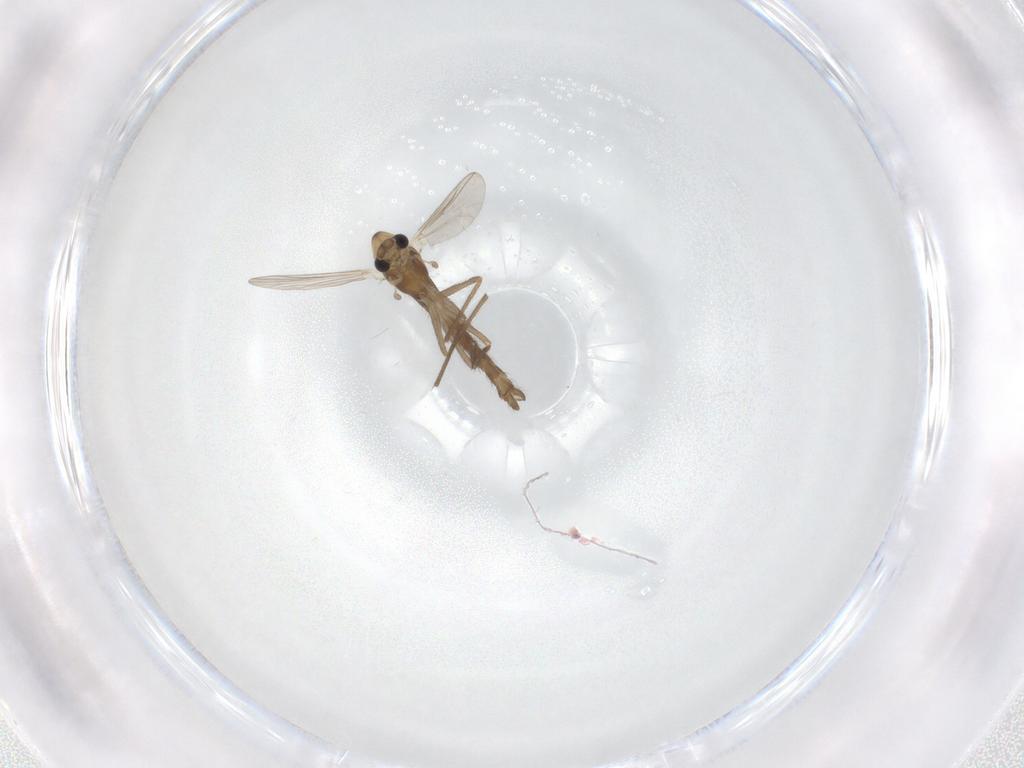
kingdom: Animalia
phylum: Arthropoda
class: Insecta
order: Diptera
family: Chironomidae
